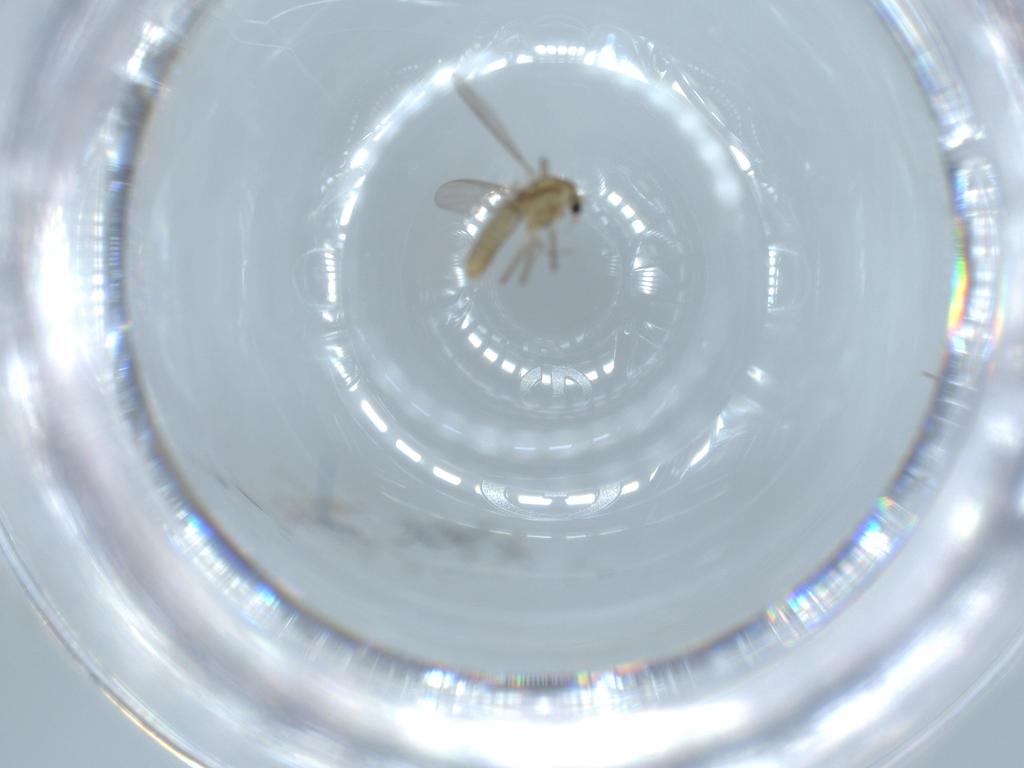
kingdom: Animalia
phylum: Arthropoda
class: Insecta
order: Diptera
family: Chironomidae
